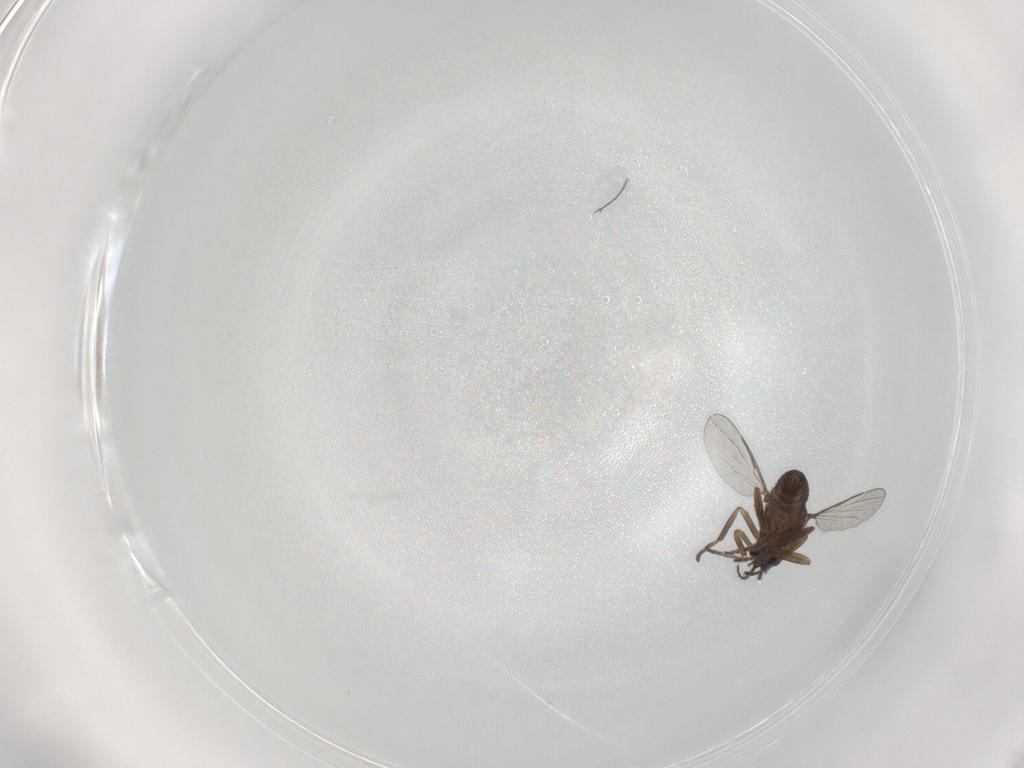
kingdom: Animalia
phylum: Arthropoda
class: Insecta
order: Diptera
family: Ceratopogonidae
